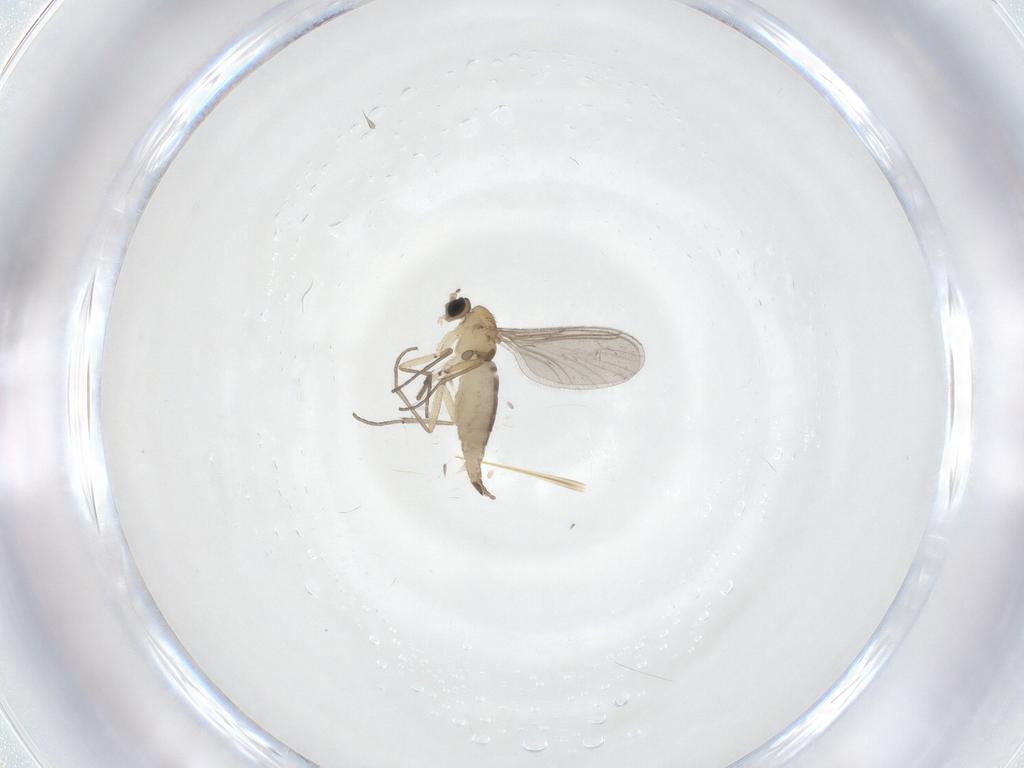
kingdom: Animalia
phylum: Arthropoda
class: Insecta
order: Diptera
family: Sciaridae
